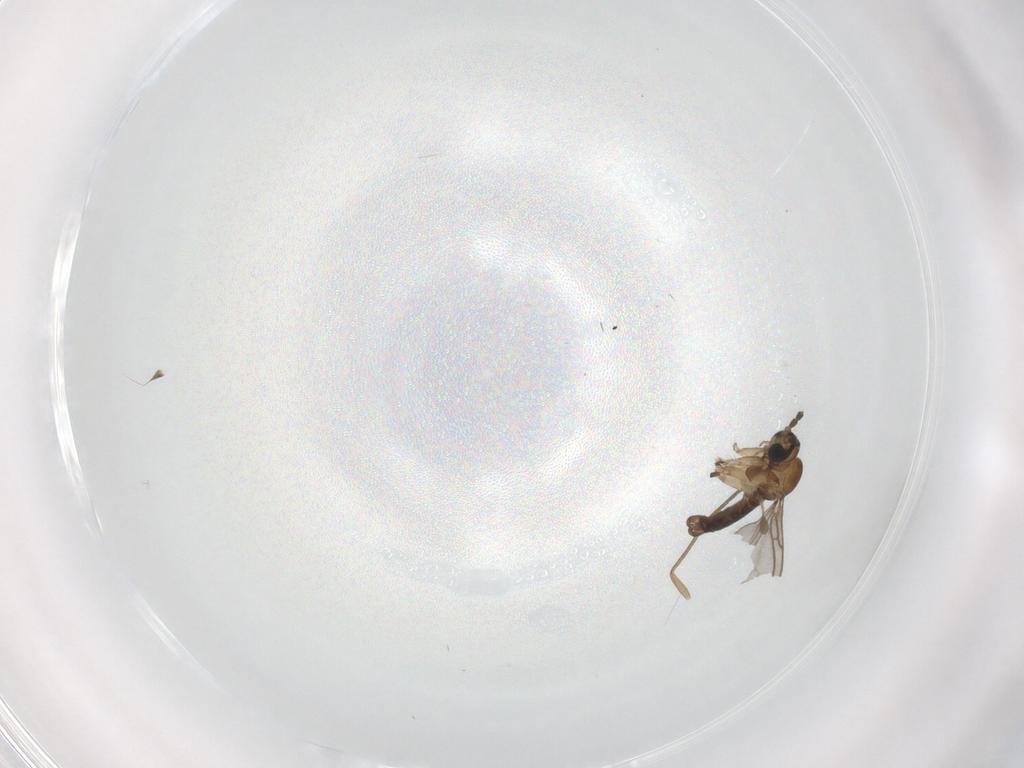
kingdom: Animalia
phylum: Arthropoda
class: Insecta
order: Diptera
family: Sciaridae
